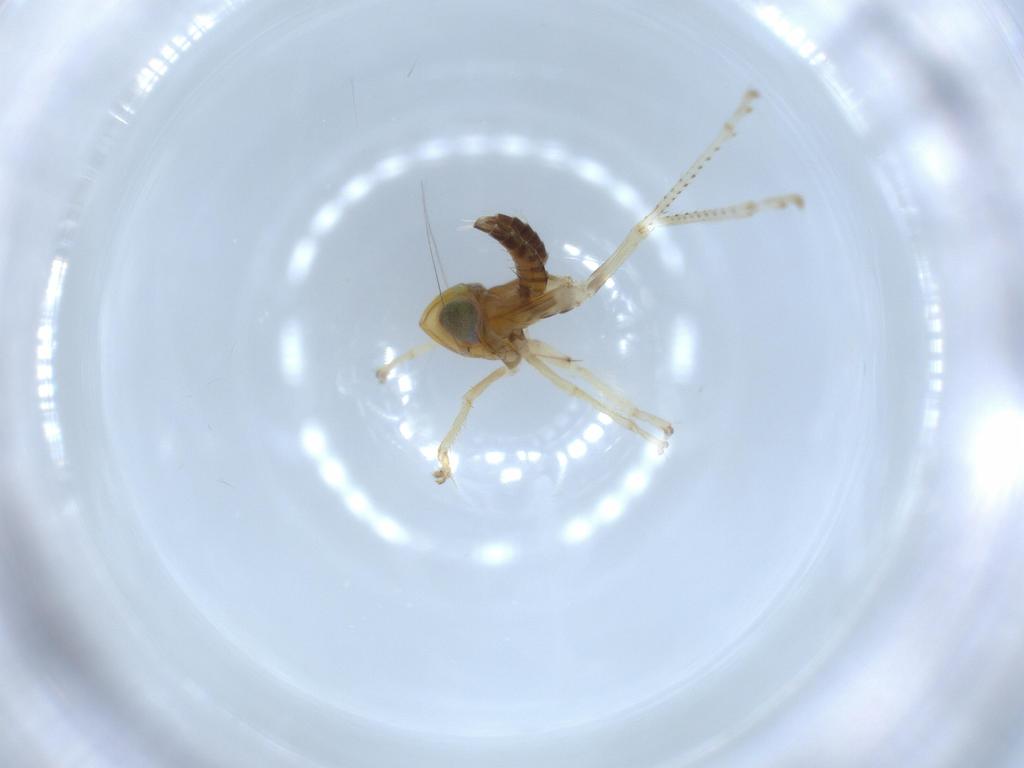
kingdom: Animalia
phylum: Arthropoda
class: Insecta
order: Hemiptera
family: Cicadellidae
